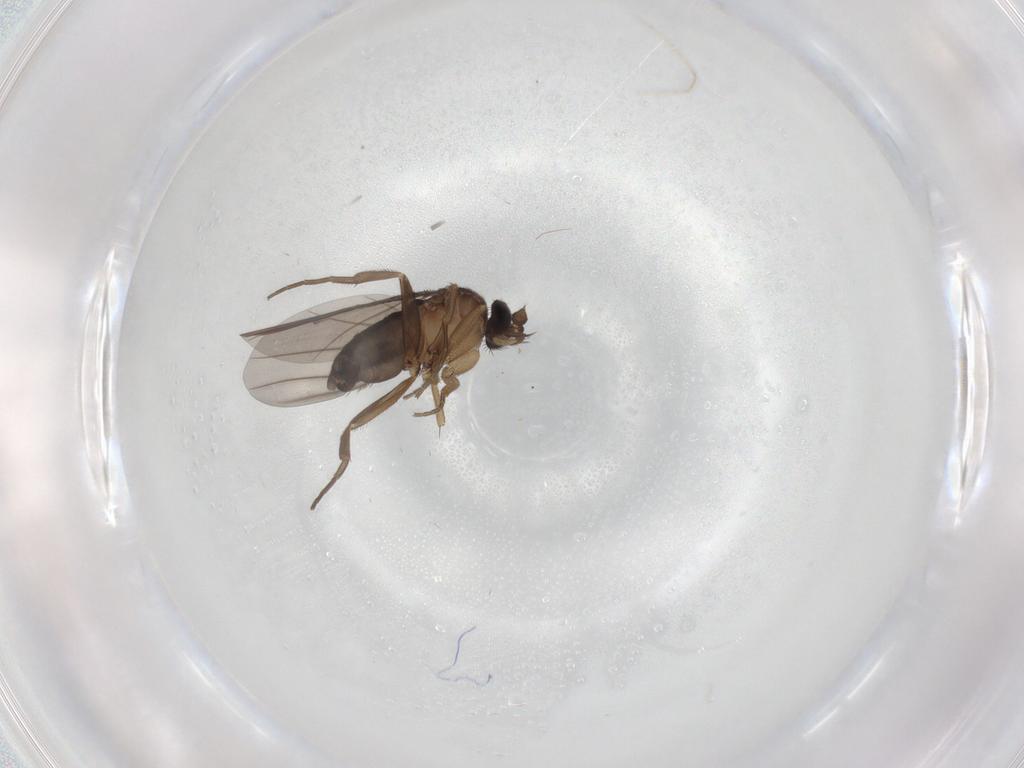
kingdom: Animalia
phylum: Arthropoda
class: Insecta
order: Diptera
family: Phoridae
